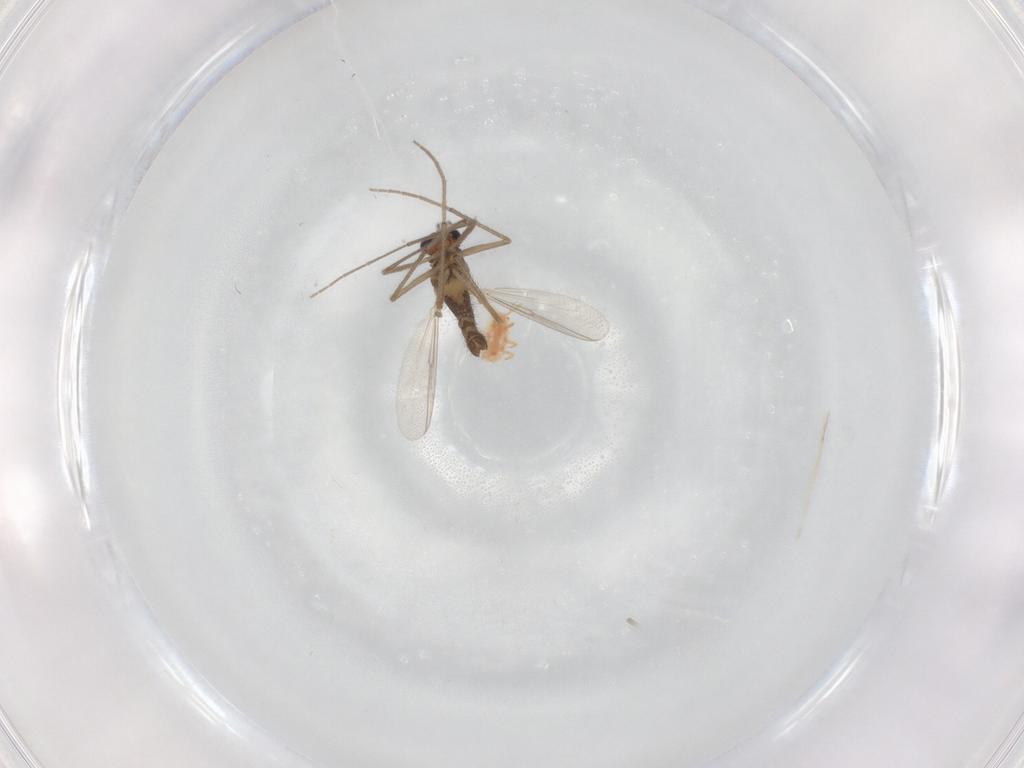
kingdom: Animalia
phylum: Arthropoda
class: Insecta
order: Diptera
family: Chironomidae
